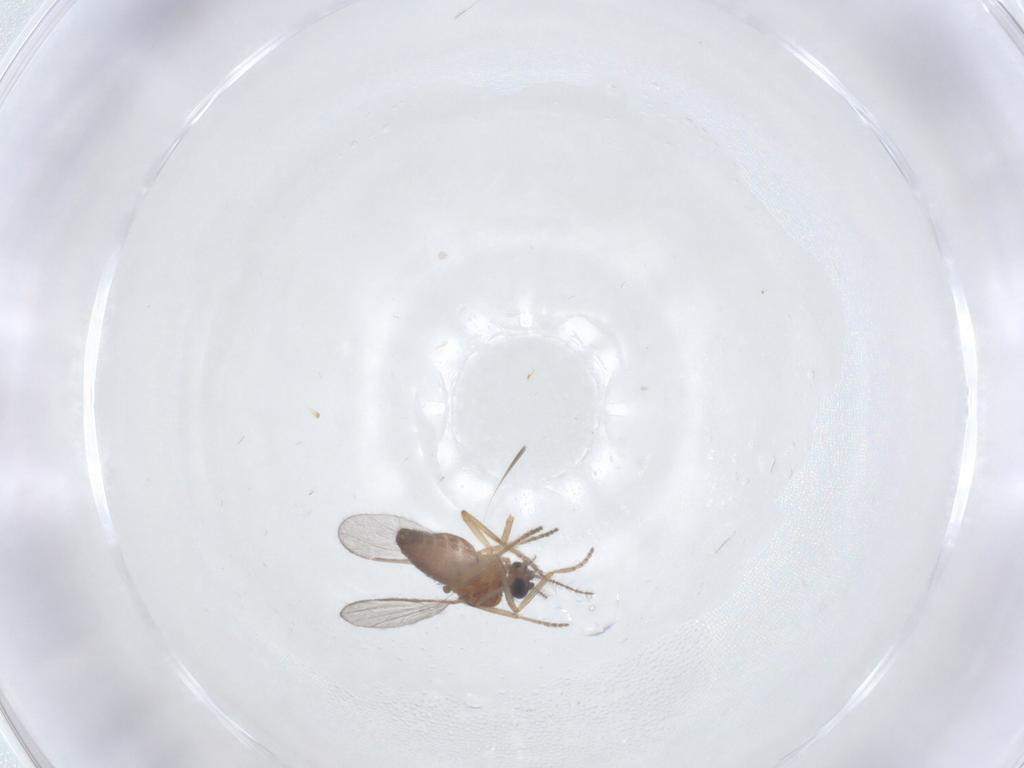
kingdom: Animalia
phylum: Arthropoda
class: Insecta
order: Diptera
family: Ceratopogonidae
